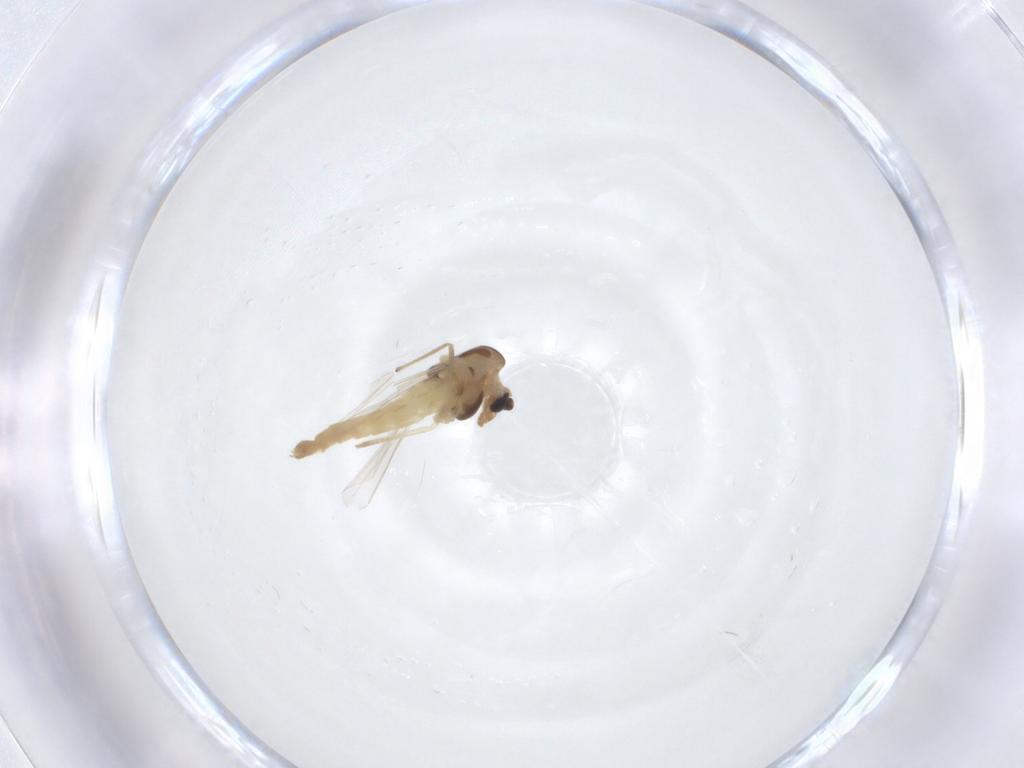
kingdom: Animalia
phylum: Arthropoda
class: Insecta
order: Diptera
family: Chironomidae
